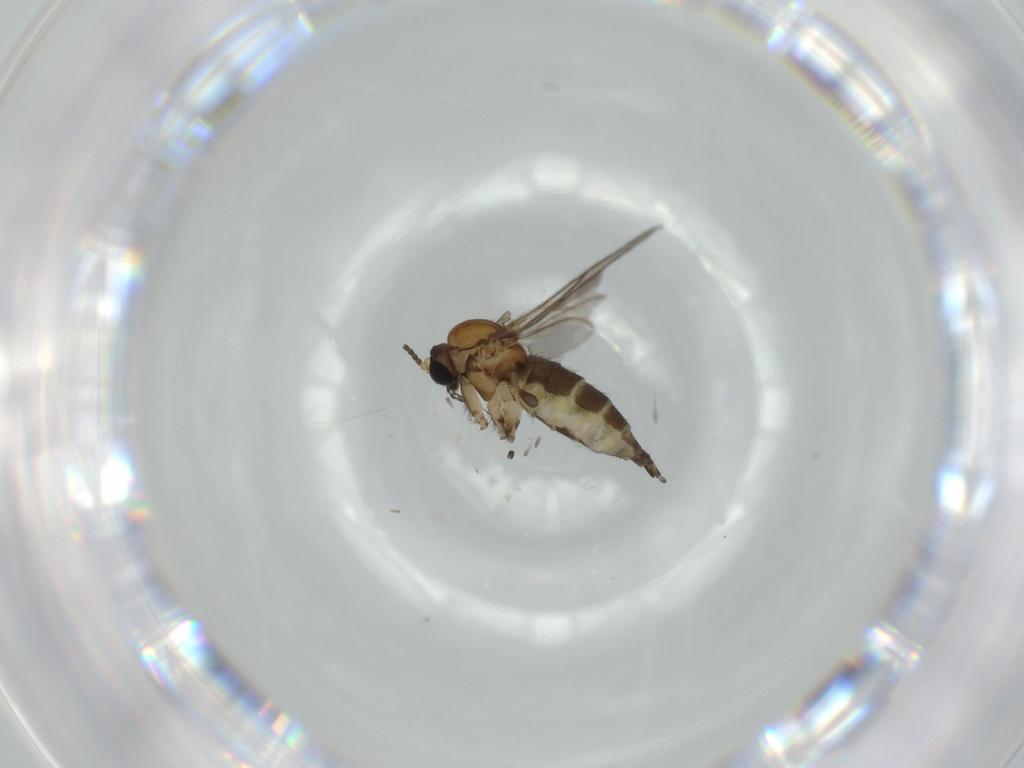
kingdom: Animalia
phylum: Arthropoda
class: Insecta
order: Diptera
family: Sciaridae
